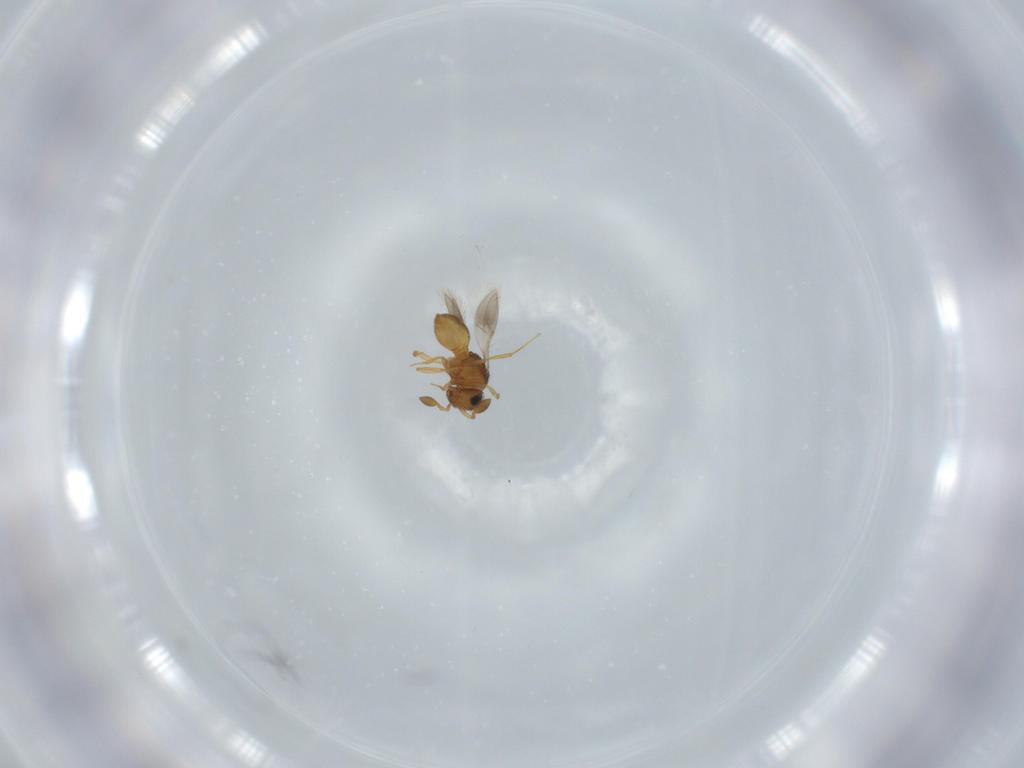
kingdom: Animalia
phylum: Arthropoda
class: Insecta
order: Hymenoptera
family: Scelionidae
